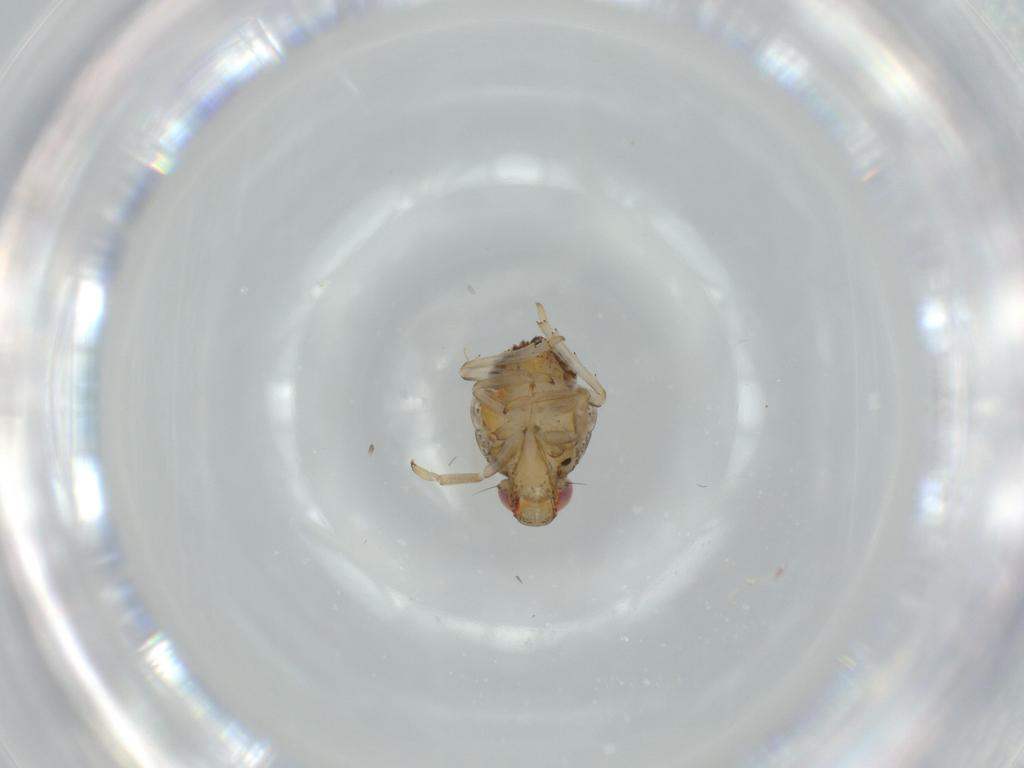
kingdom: Animalia
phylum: Arthropoda
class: Insecta
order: Hemiptera
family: Issidae
